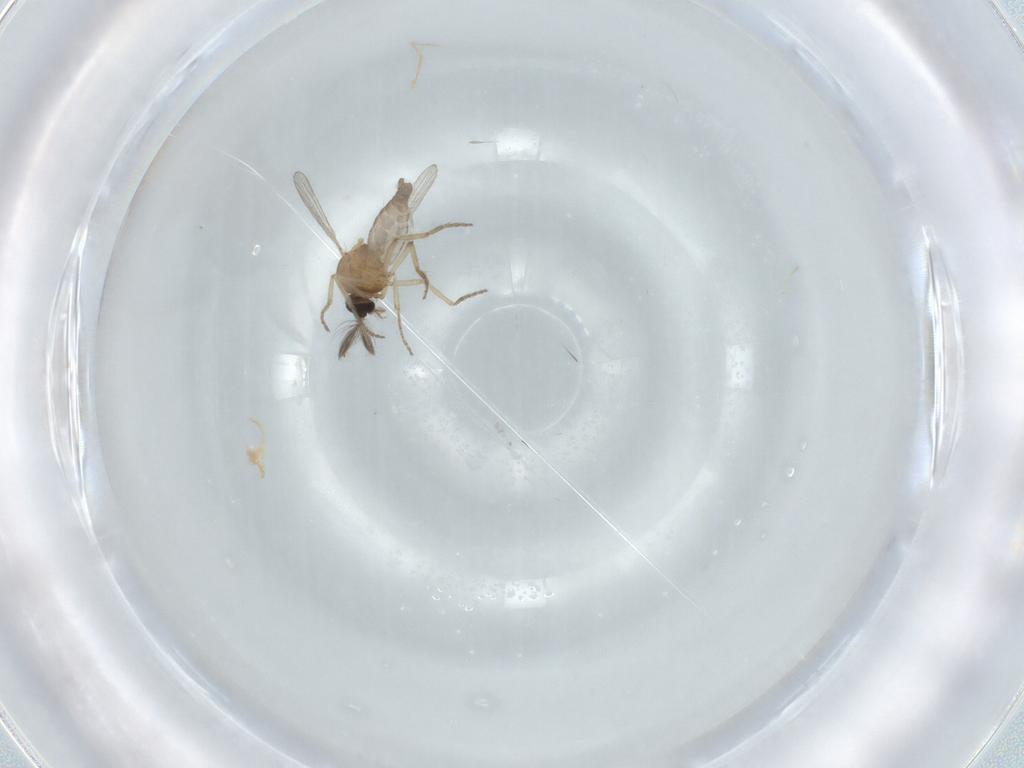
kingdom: Animalia
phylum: Arthropoda
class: Insecta
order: Diptera
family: Ceratopogonidae
